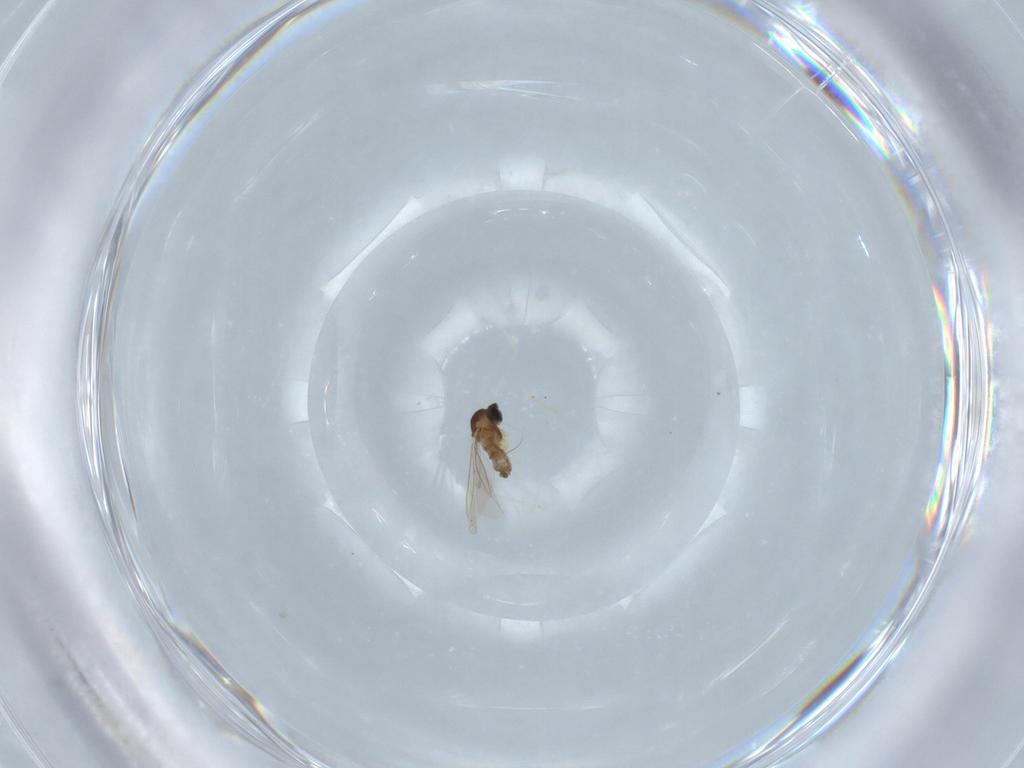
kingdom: Animalia
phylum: Arthropoda
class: Insecta
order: Diptera
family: Cecidomyiidae
